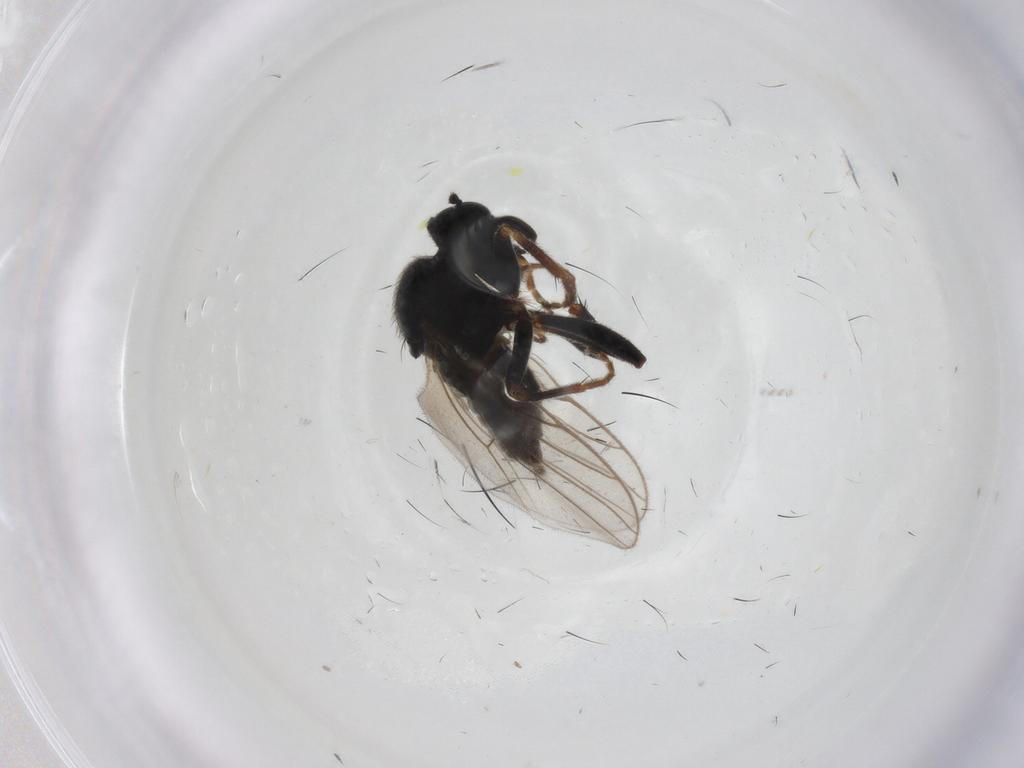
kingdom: Animalia
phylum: Arthropoda
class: Insecta
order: Diptera
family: Hybotidae
